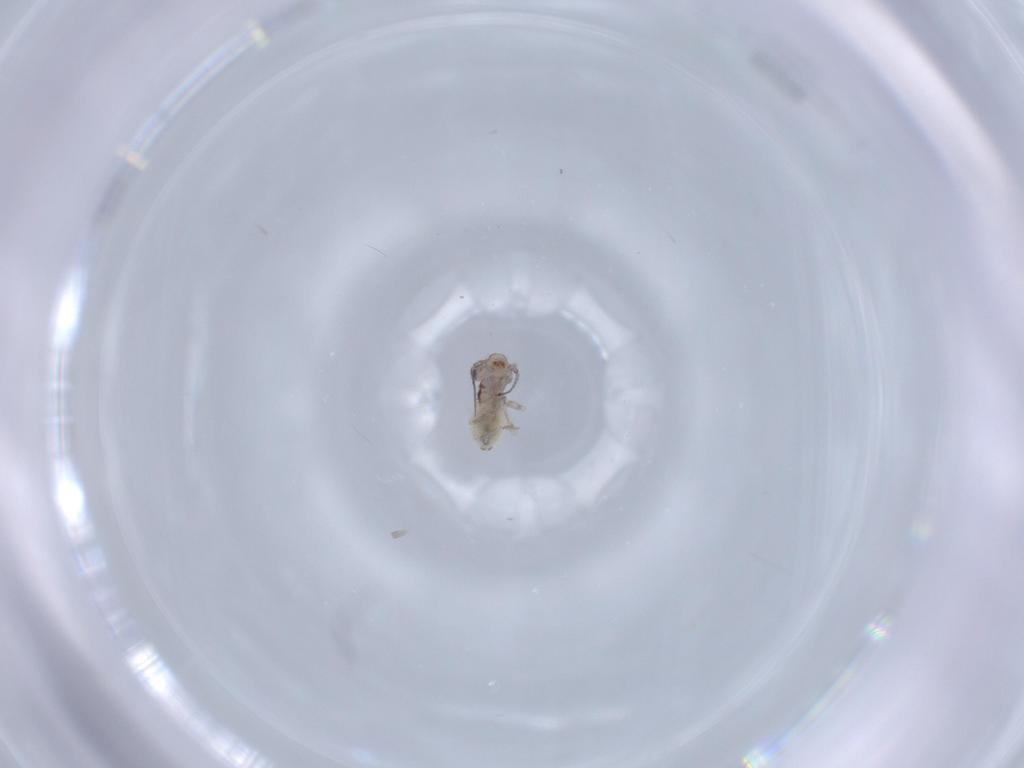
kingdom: Animalia
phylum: Arthropoda
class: Insecta
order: Psocodea
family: Lepidopsocidae
